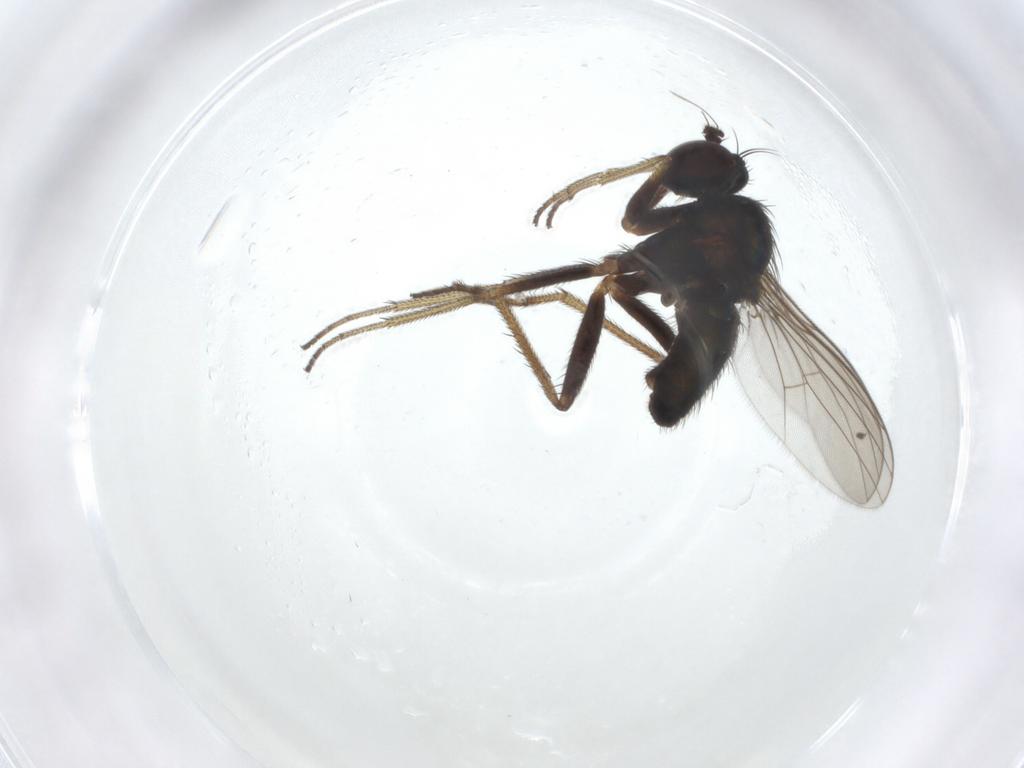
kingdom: Animalia
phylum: Arthropoda
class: Insecta
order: Diptera
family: Dolichopodidae
